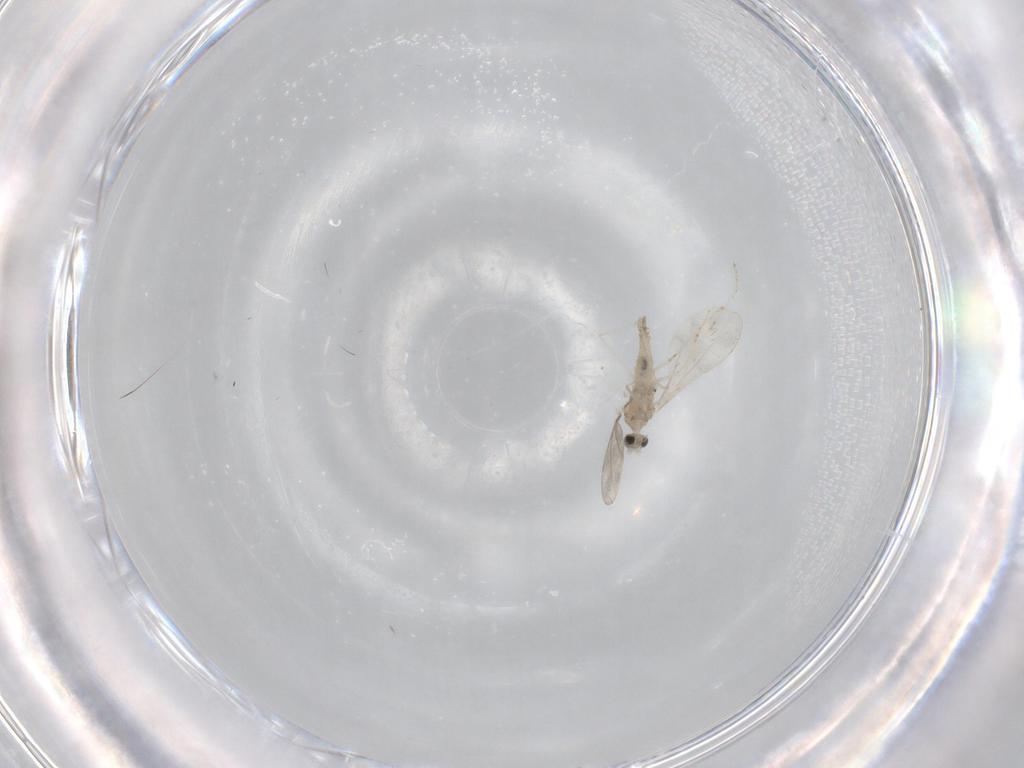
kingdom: Animalia
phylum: Arthropoda
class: Insecta
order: Diptera
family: Cecidomyiidae
